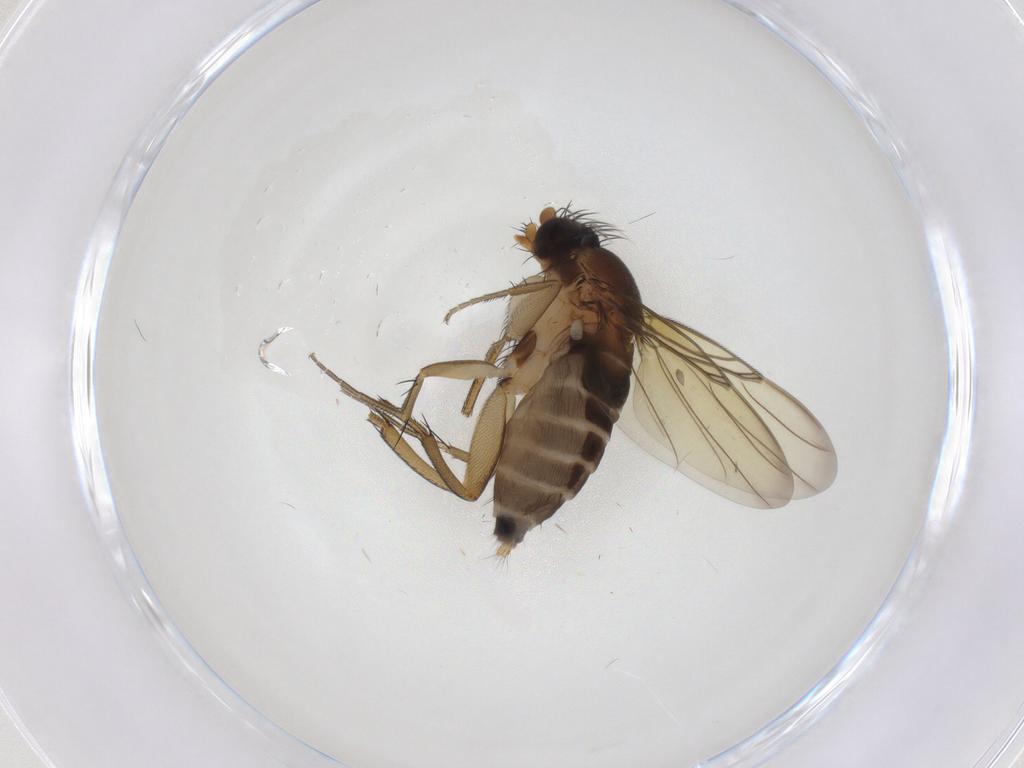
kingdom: Animalia
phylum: Arthropoda
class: Insecta
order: Diptera
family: Phoridae
